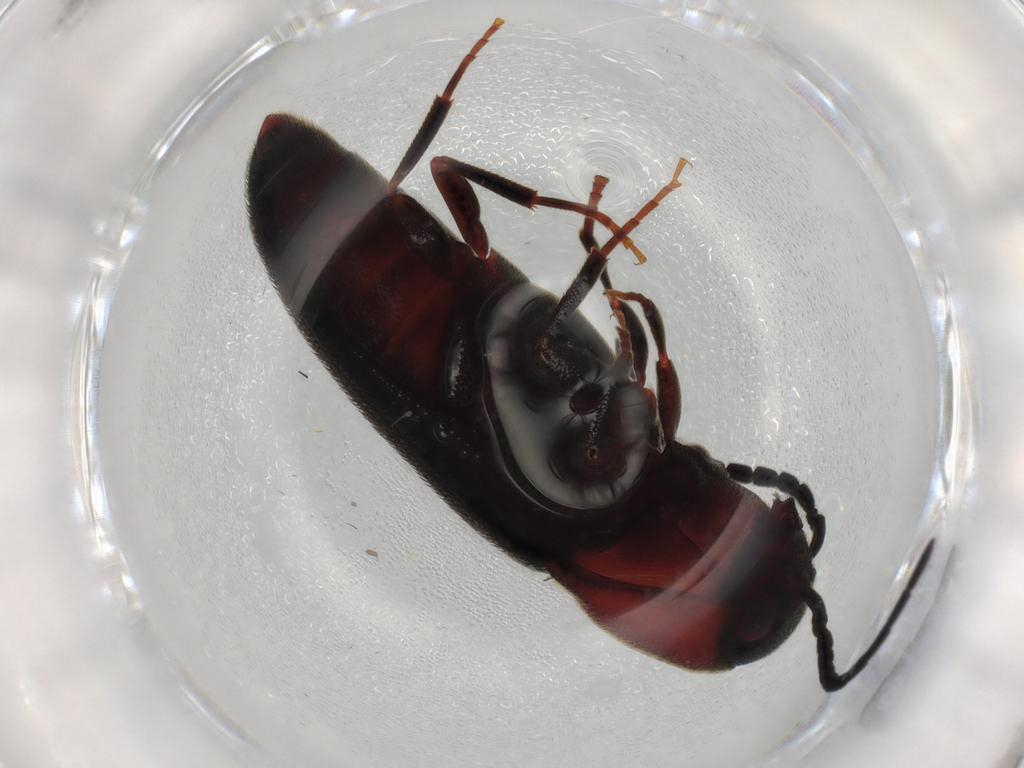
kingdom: Animalia
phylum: Arthropoda
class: Insecta
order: Coleoptera
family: Eucnemidae
